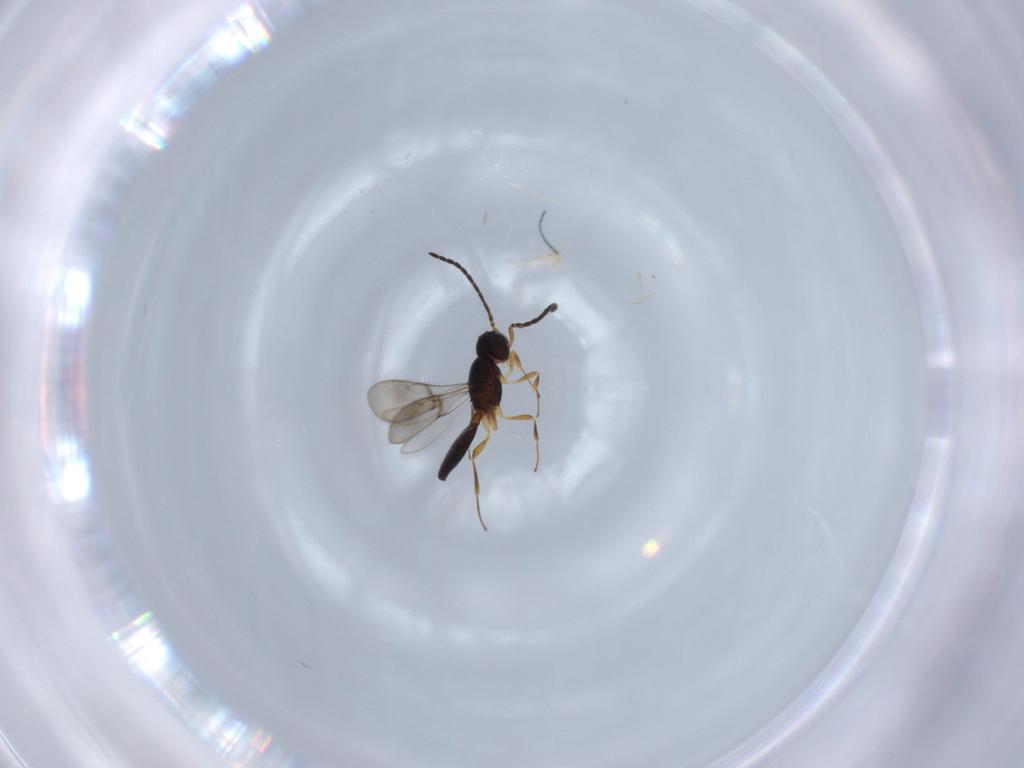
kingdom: Animalia
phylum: Arthropoda
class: Insecta
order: Hymenoptera
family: Scelionidae
